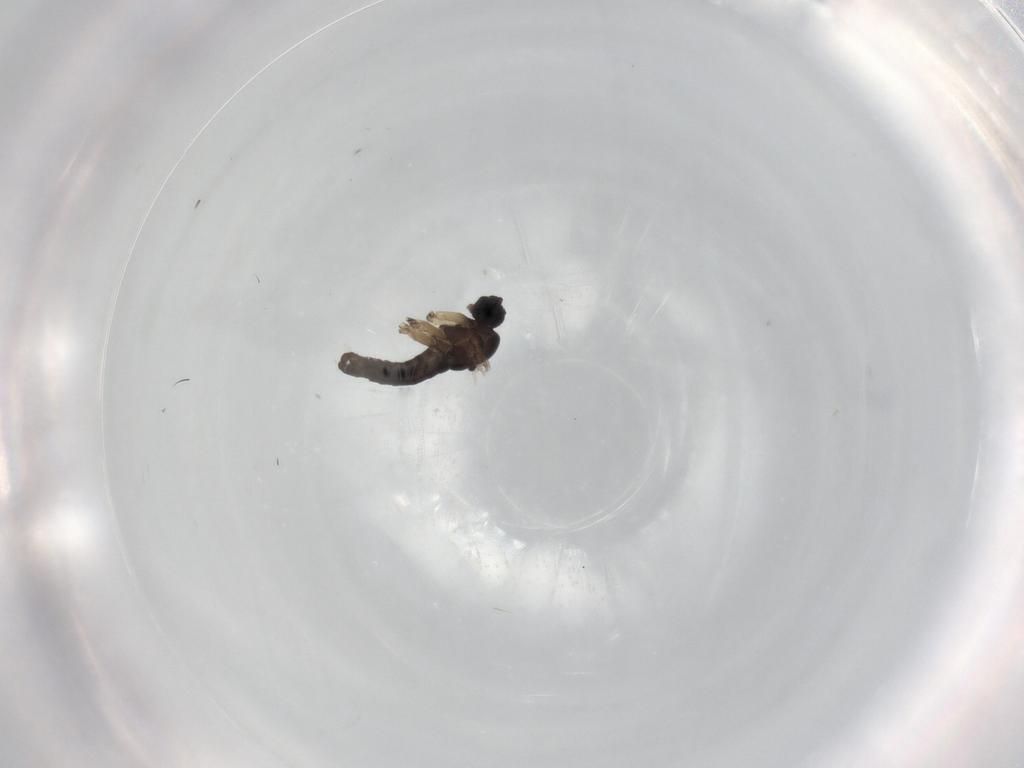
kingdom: Animalia
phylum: Arthropoda
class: Insecta
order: Diptera
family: Sciaridae
